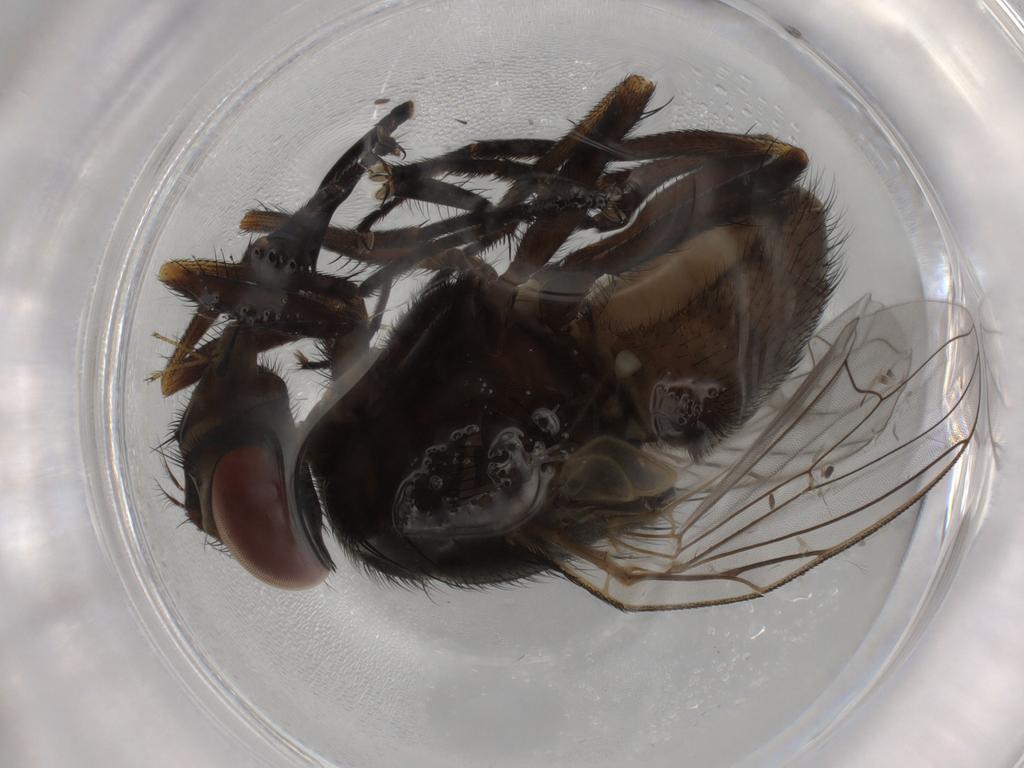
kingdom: Animalia
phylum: Arthropoda
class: Insecta
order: Diptera
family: Muscidae
